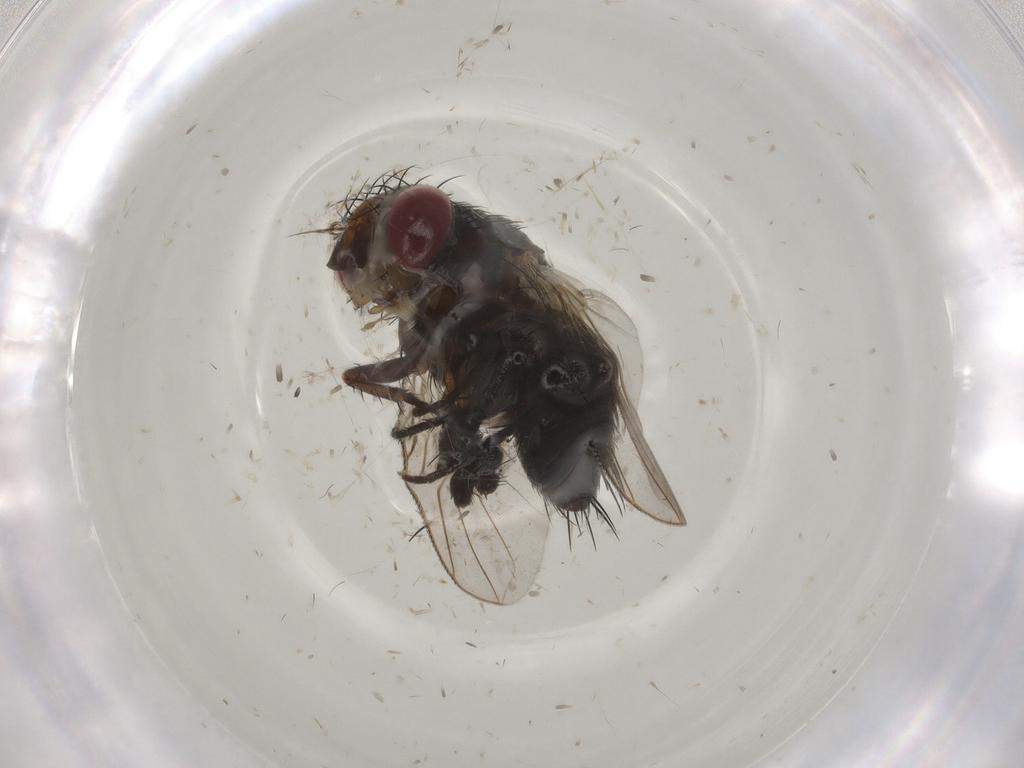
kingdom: Animalia
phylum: Arthropoda
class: Insecta
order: Diptera
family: Tachinidae
